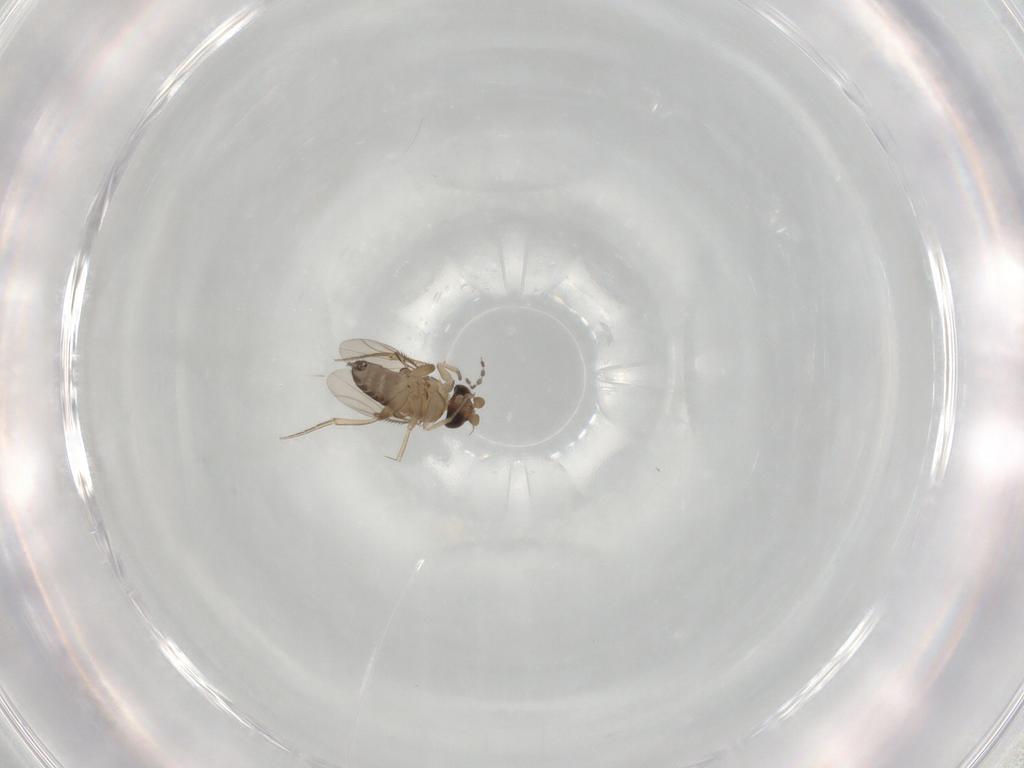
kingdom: Animalia
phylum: Arthropoda
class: Insecta
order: Diptera
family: Phoridae
